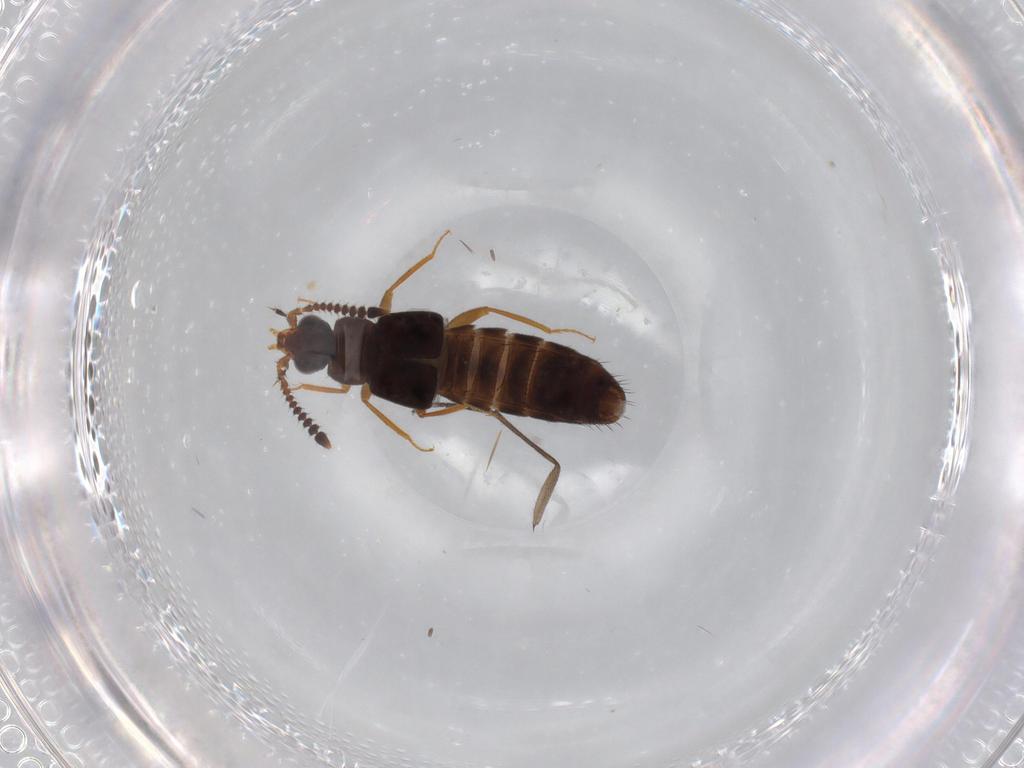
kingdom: Animalia
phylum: Arthropoda
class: Insecta
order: Coleoptera
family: Staphylinidae
